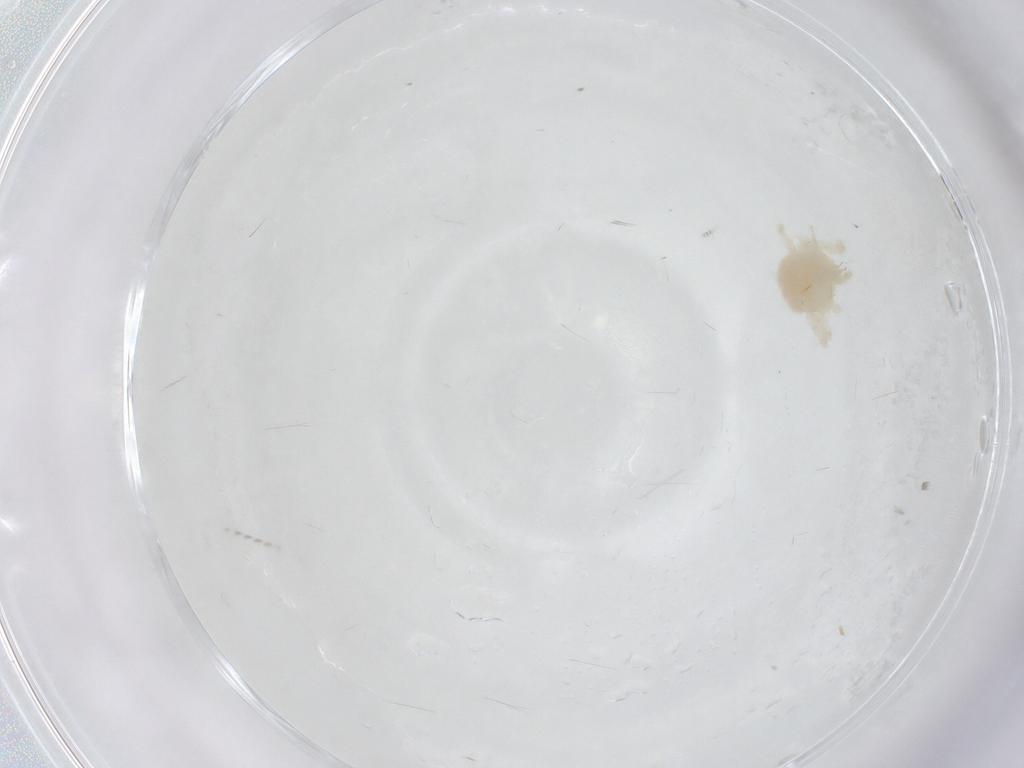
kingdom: Animalia
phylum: Arthropoda
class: Arachnida
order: Trombidiformes
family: Anystidae
